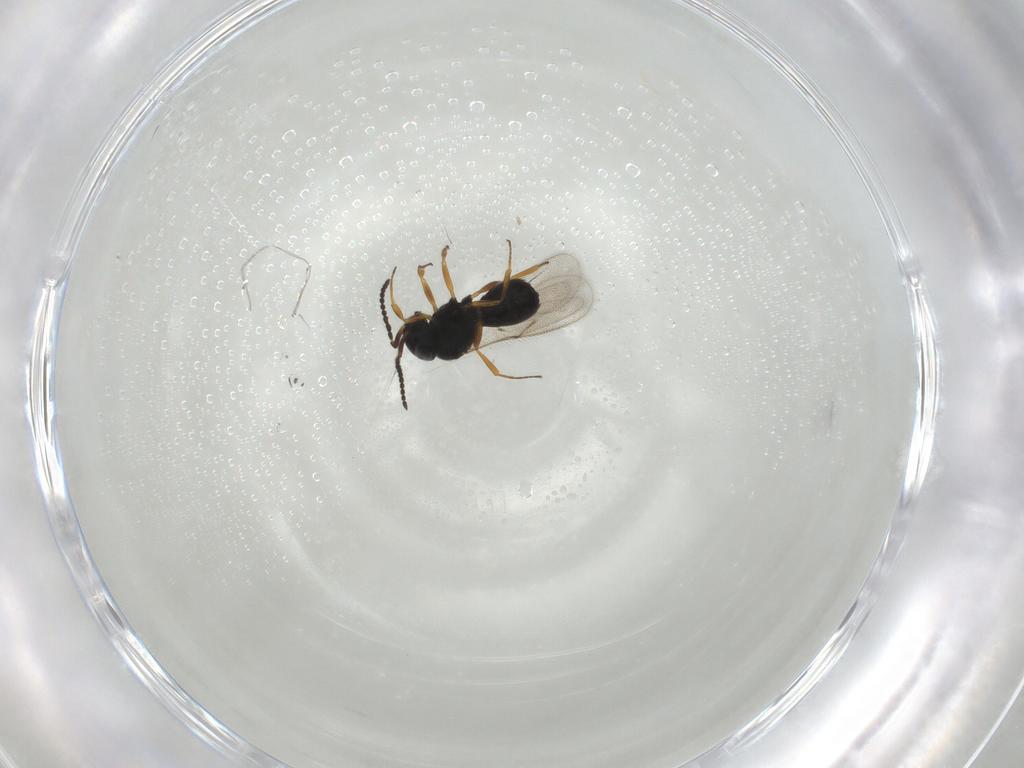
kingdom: Animalia
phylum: Arthropoda
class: Insecta
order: Hymenoptera
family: Scelionidae
